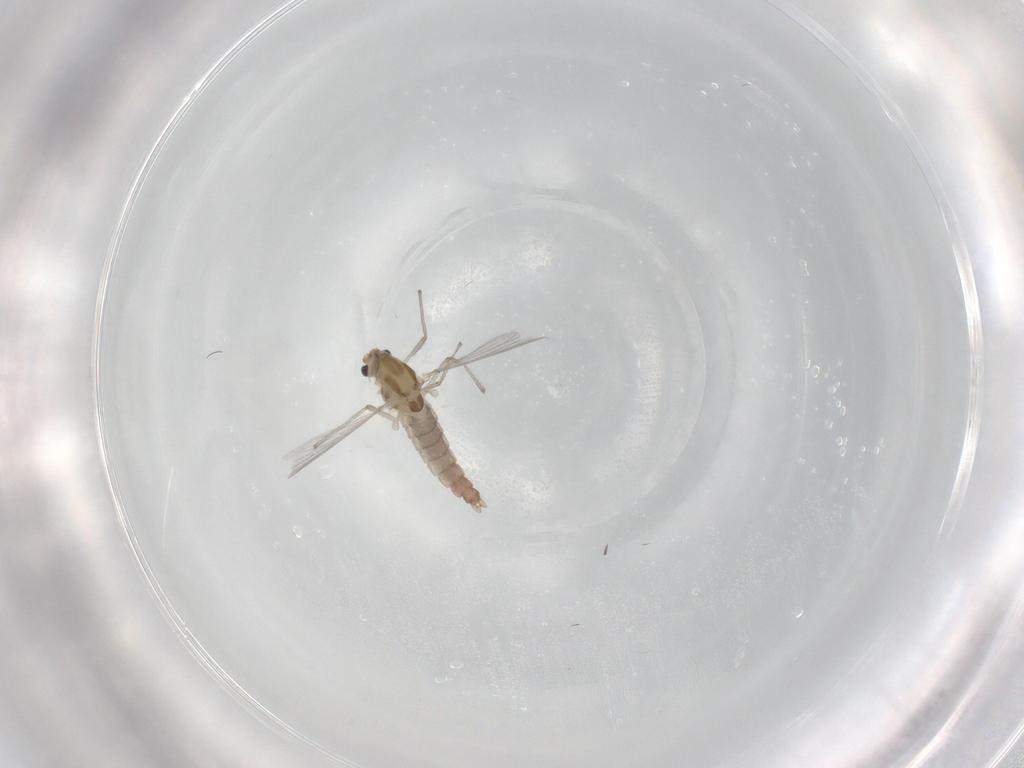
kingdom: Animalia
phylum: Arthropoda
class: Insecta
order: Diptera
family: Chironomidae
